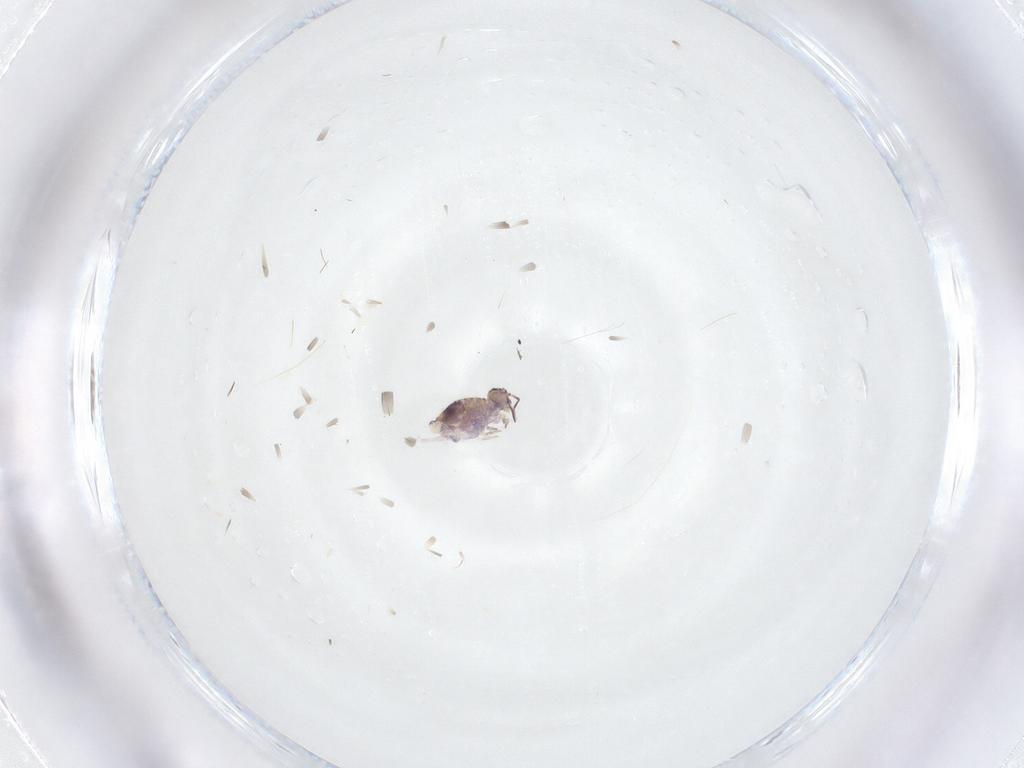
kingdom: Animalia
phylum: Arthropoda
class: Collembola
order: Symphypleona
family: Sminthuridae
